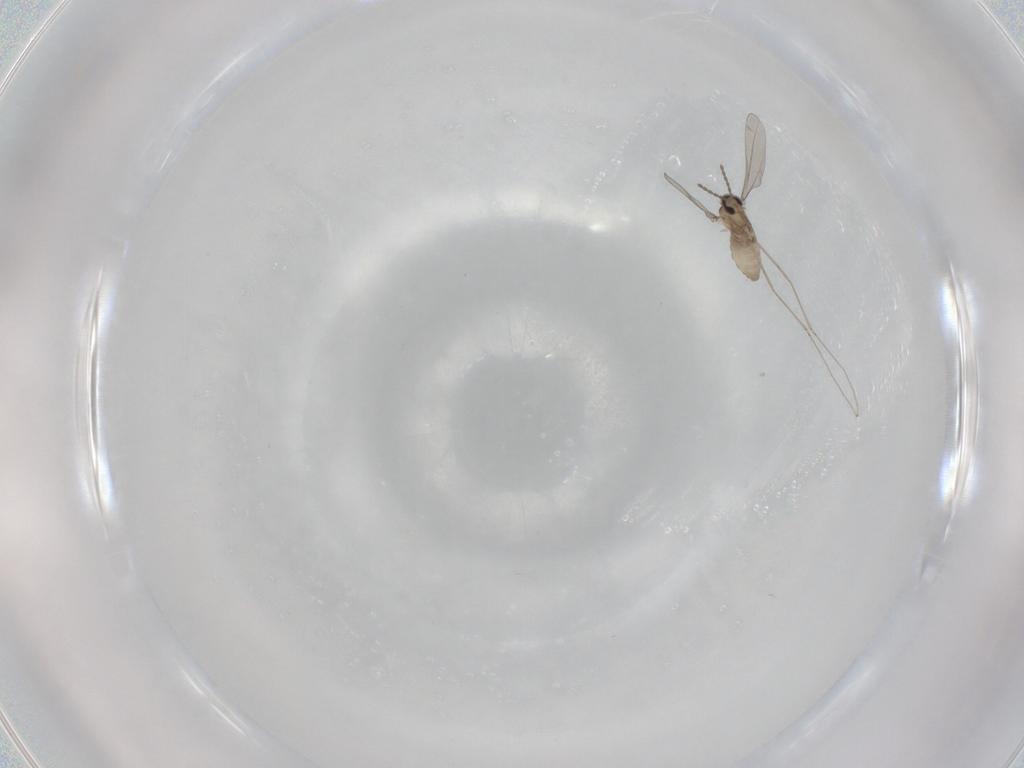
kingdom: Animalia
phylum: Arthropoda
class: Insecta
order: Diptera
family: Cecidomyiidae
